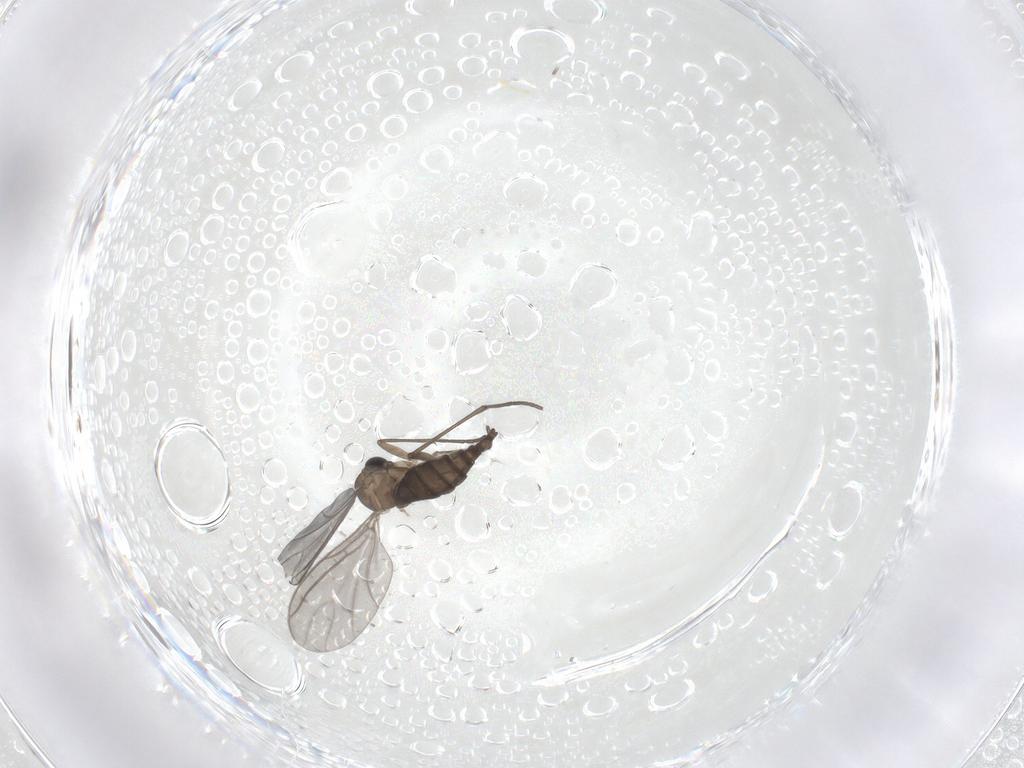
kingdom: Animalia
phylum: Arthropoda
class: Insecta
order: Diptera
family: Sciaridae
